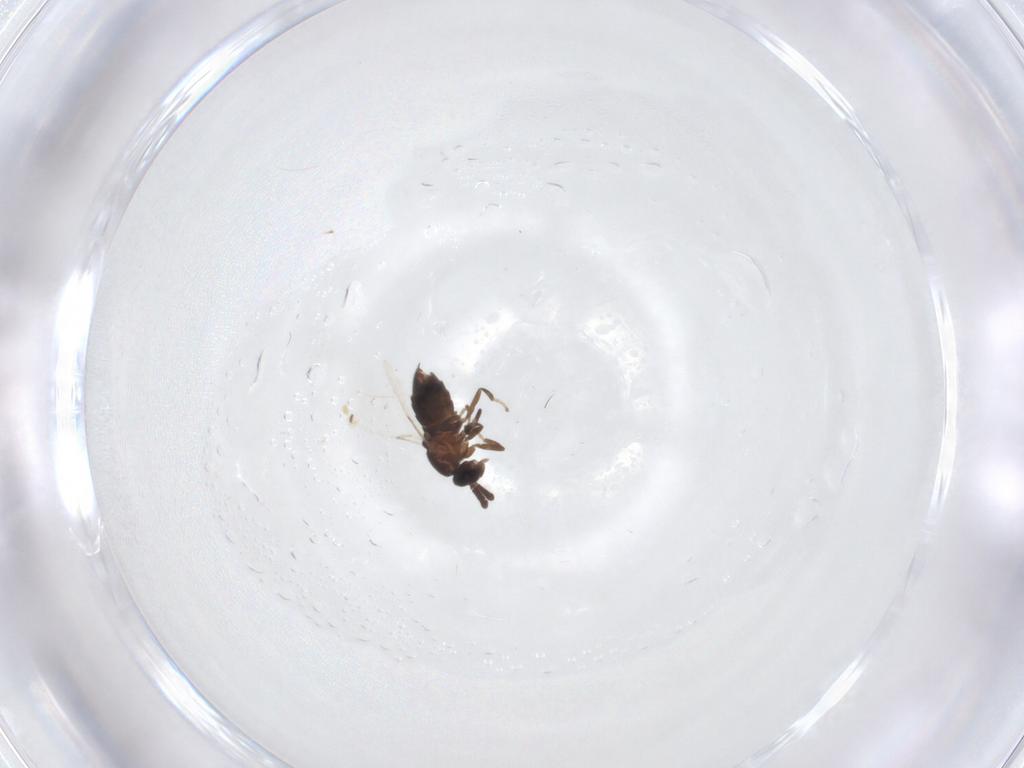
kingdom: Animalia
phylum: Arthropoda
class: Insecta
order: Diptera
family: Scatopsidae
